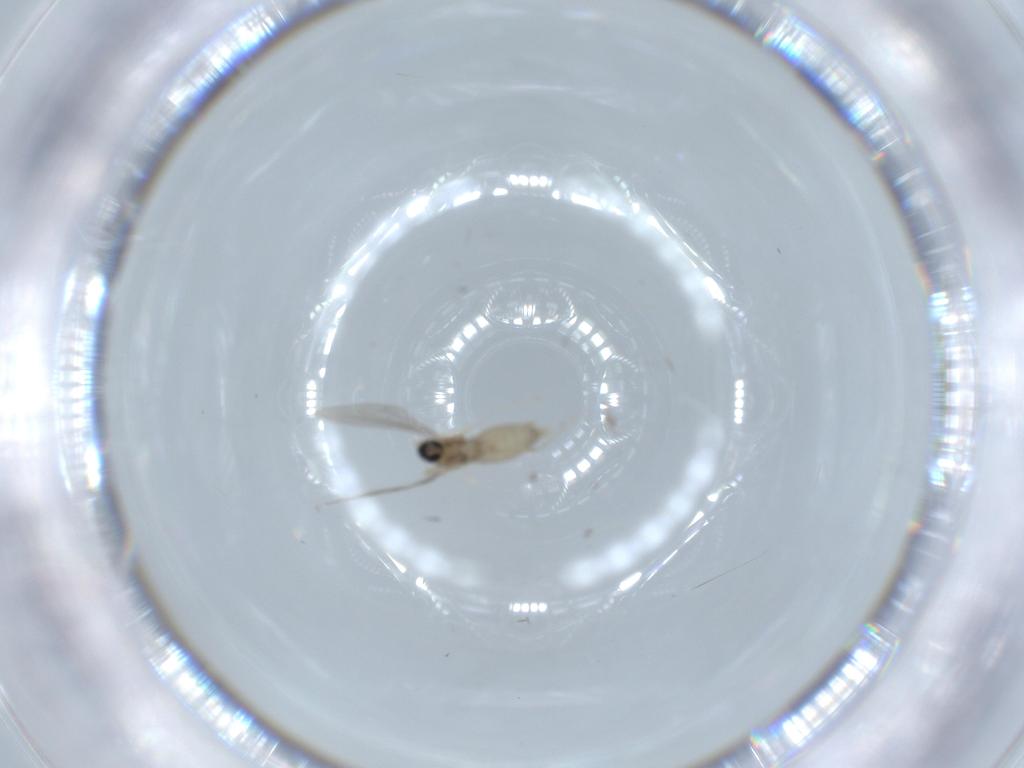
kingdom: Animalia
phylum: Arthropoda
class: Insecta
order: Diptera
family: Cecidomyiidae
